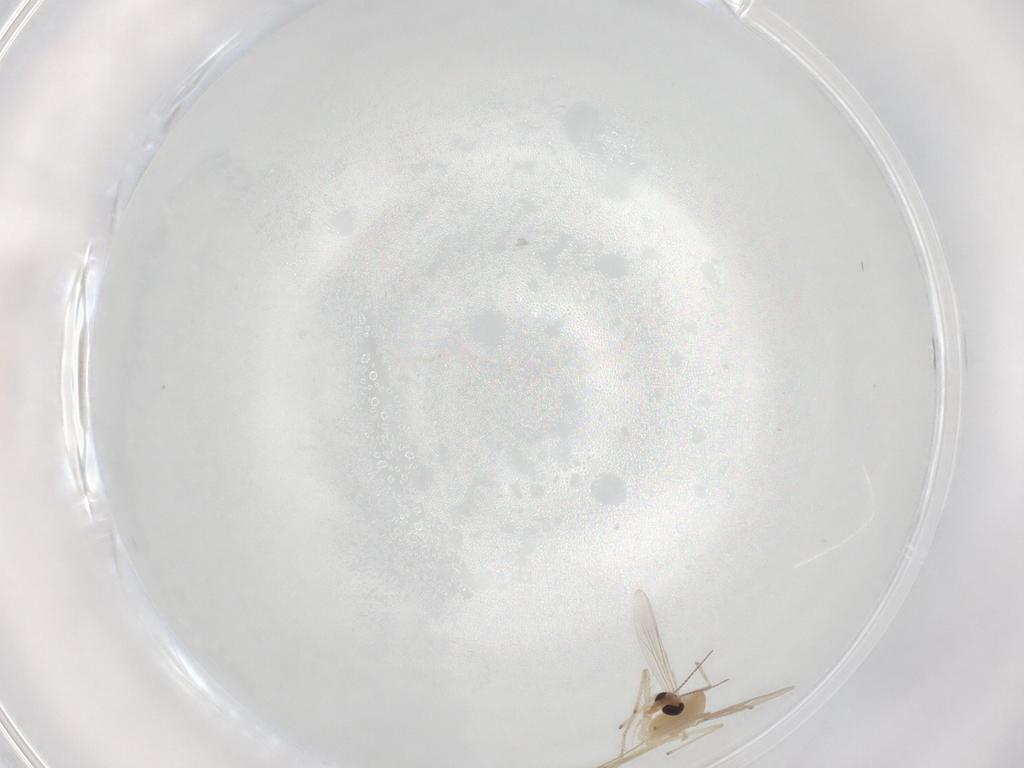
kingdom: Animalia
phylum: Arthropoda
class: Insecta
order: Diptera
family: Chironomidae
